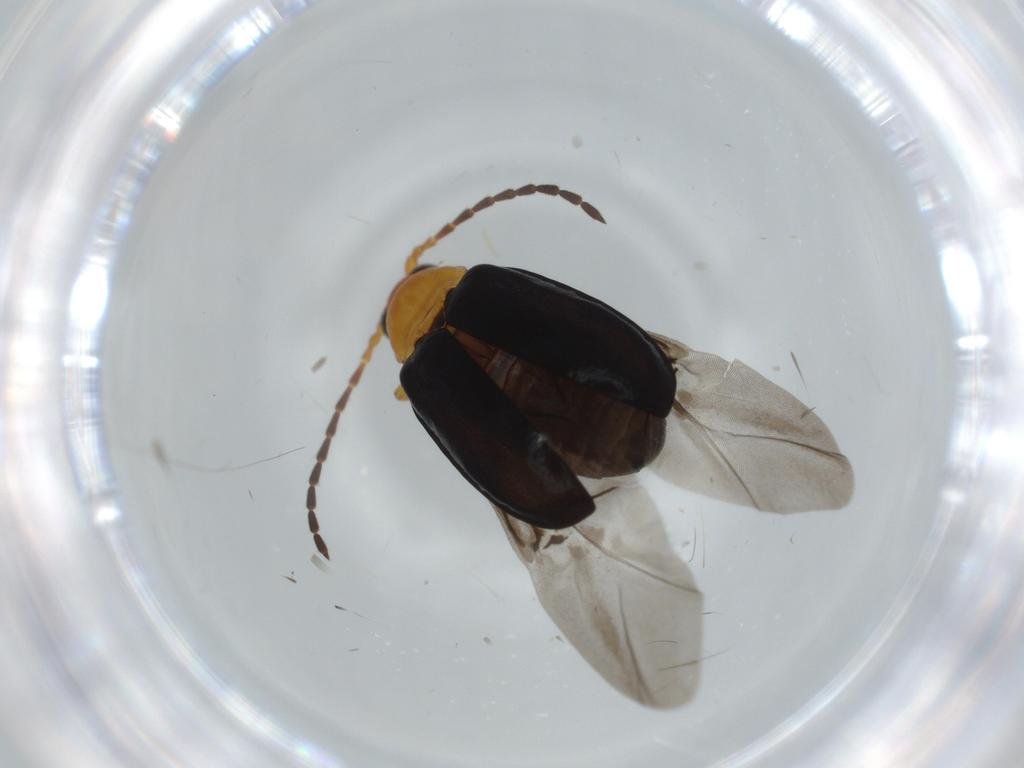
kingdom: Animalia
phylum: Arthropoda
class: Insecta
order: Coleoptera
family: Chrysomelidae
